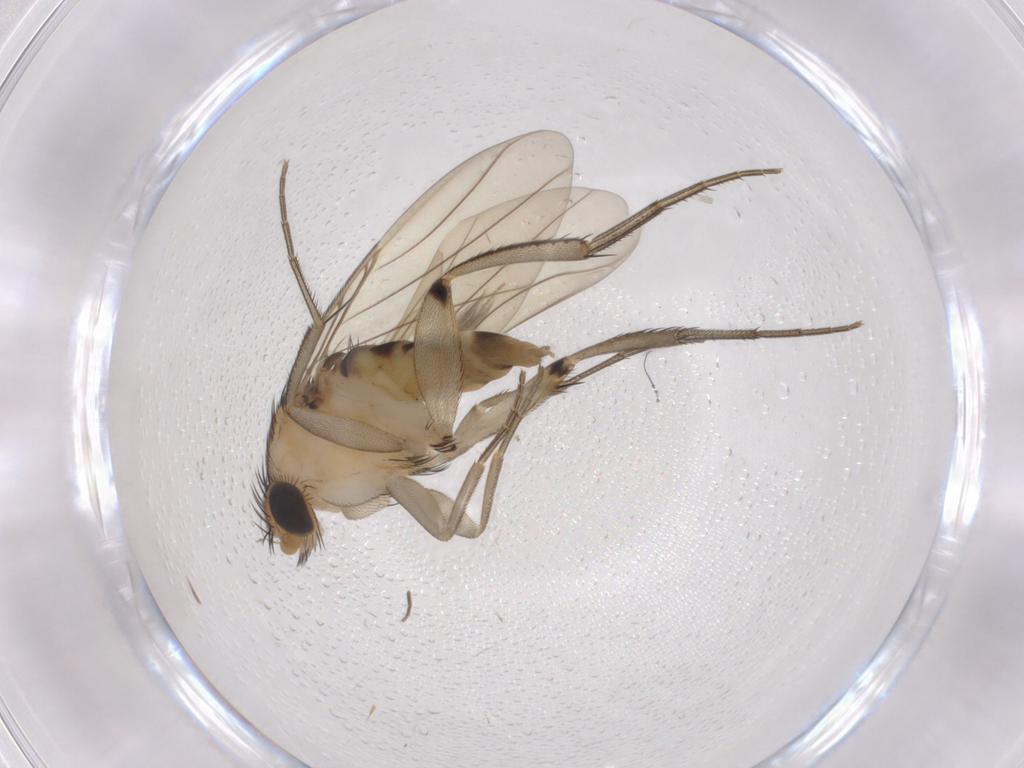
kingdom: Animalia
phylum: Arthropoda
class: Insecta
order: Diptera
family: Phoridae
